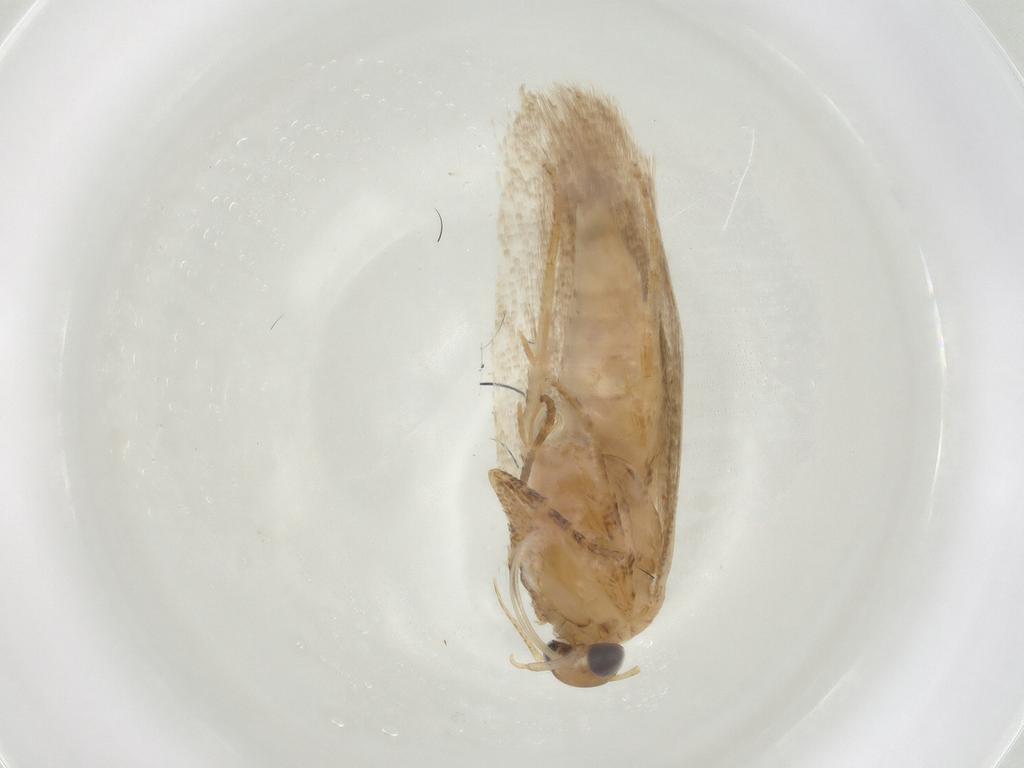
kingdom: Animalia
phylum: Arthropoda
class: Insecta
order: Lepidoptera
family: Gelechiidae
